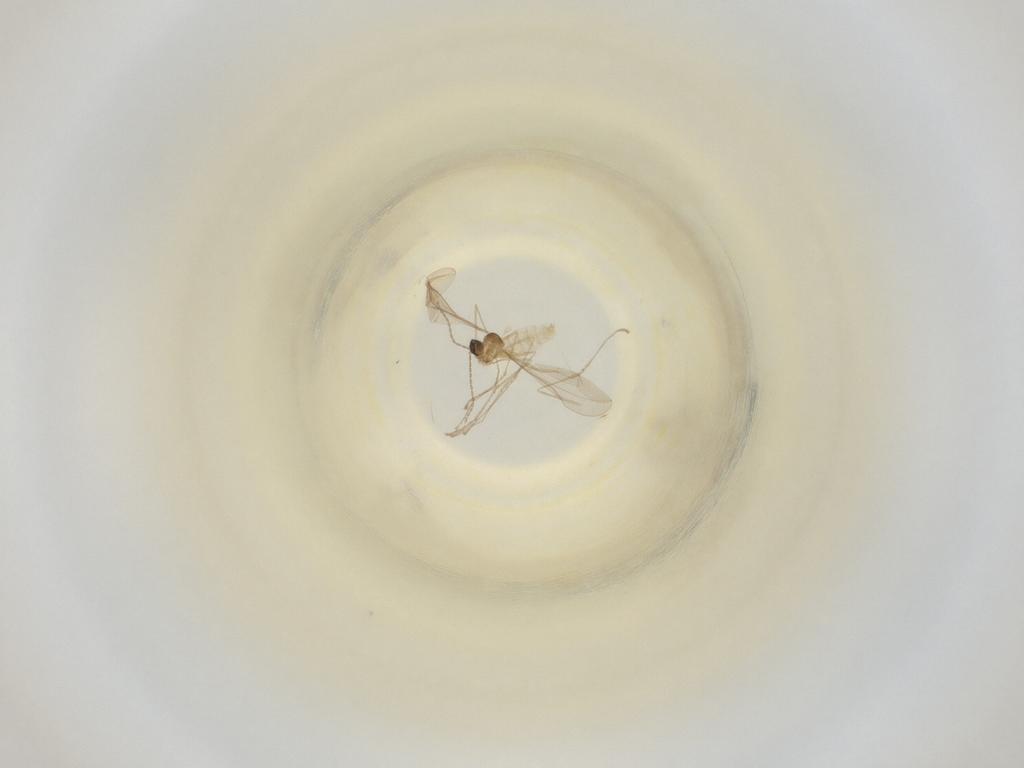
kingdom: Animalia
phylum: Arthropoda
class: Insecta
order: Diptera
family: Cecidomyiidae
